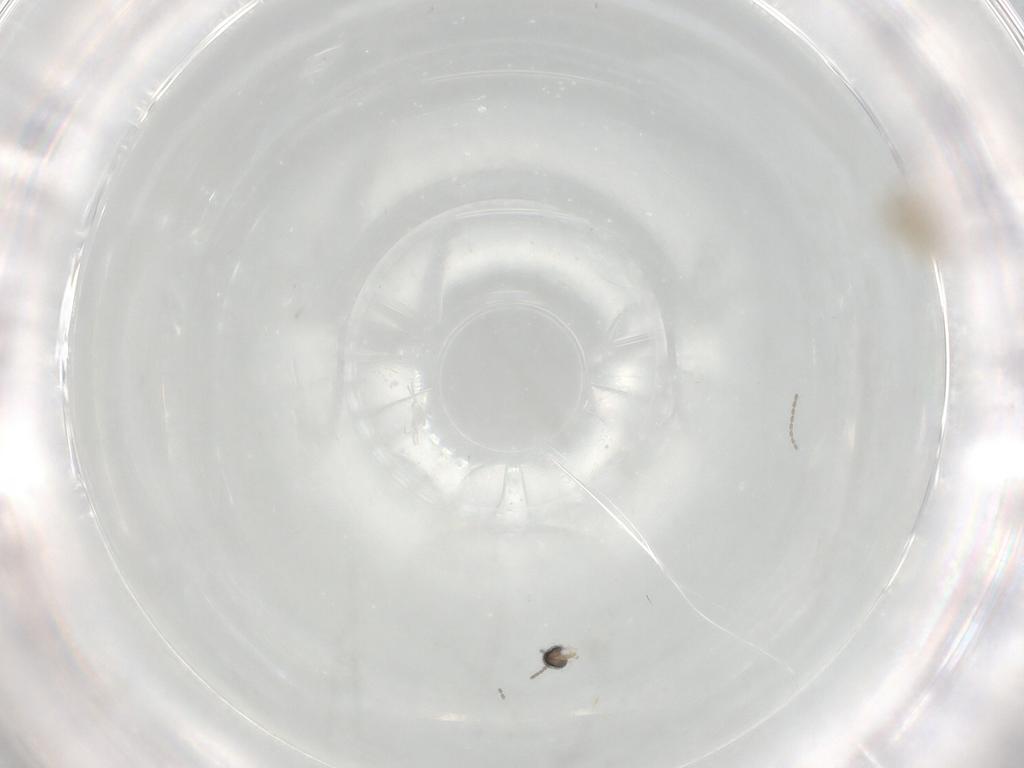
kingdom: Animalia
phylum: Arthropoda
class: Insecta
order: Diptera
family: Cecidomyiidae
